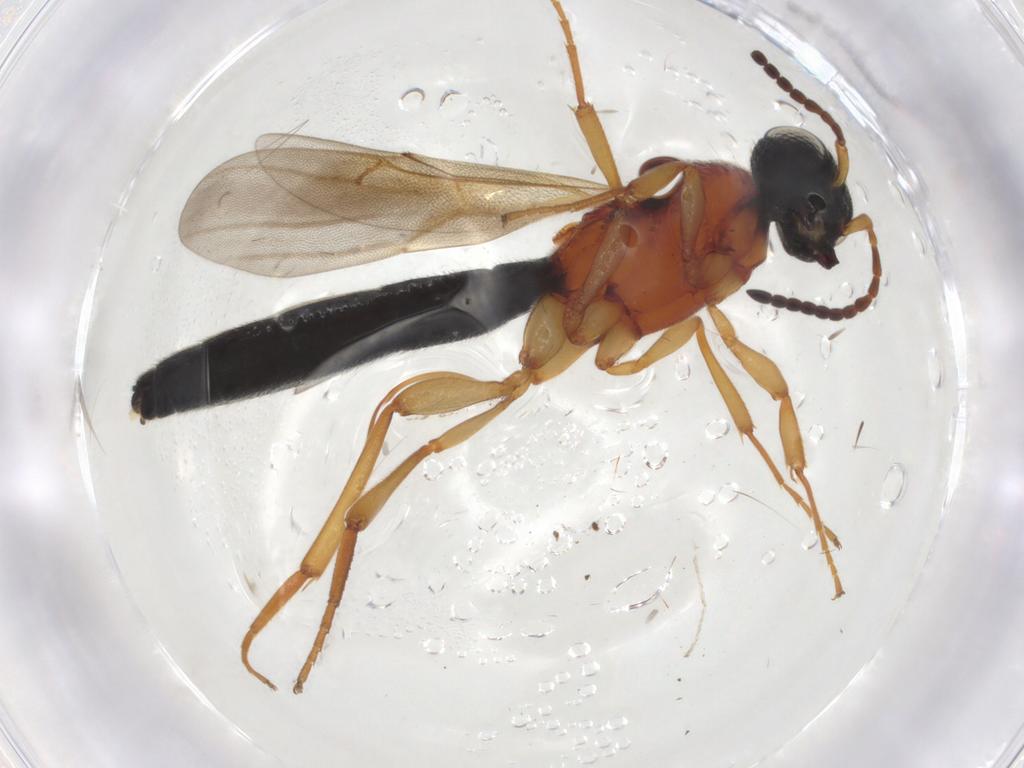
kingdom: Animalia
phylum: Arthropoda
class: Insecta
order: Hymenoptera
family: Scelionidae
